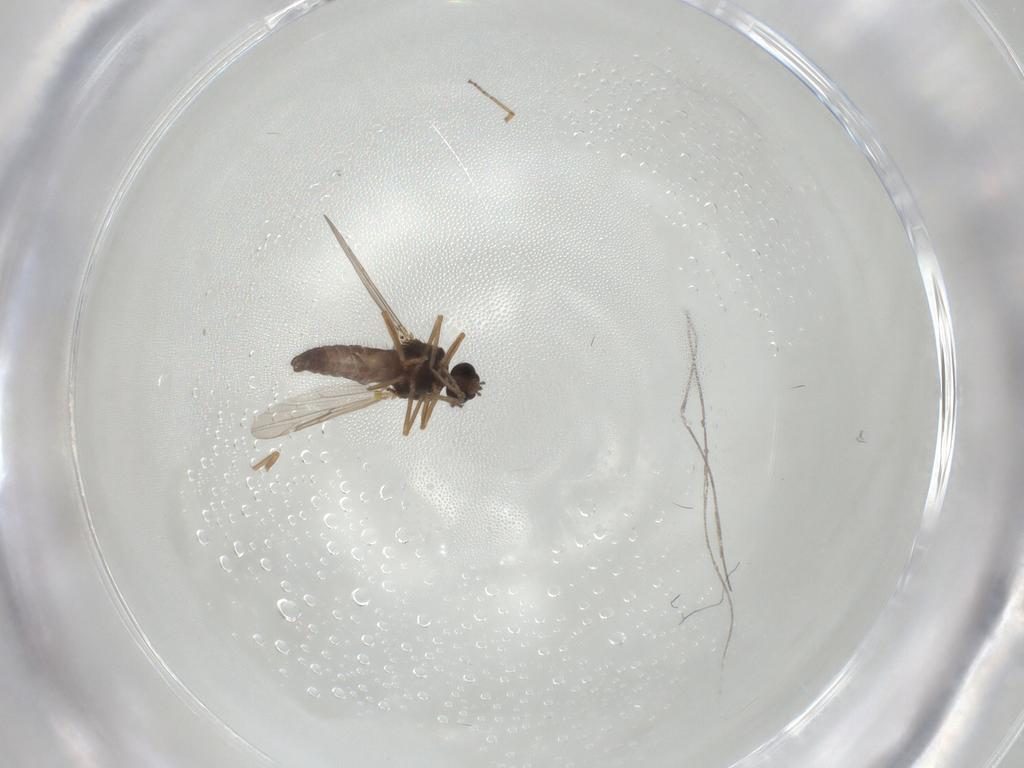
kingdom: Animalia
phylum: Arthropoda
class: Insecta
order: Diptera
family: Ceratopogonidae
